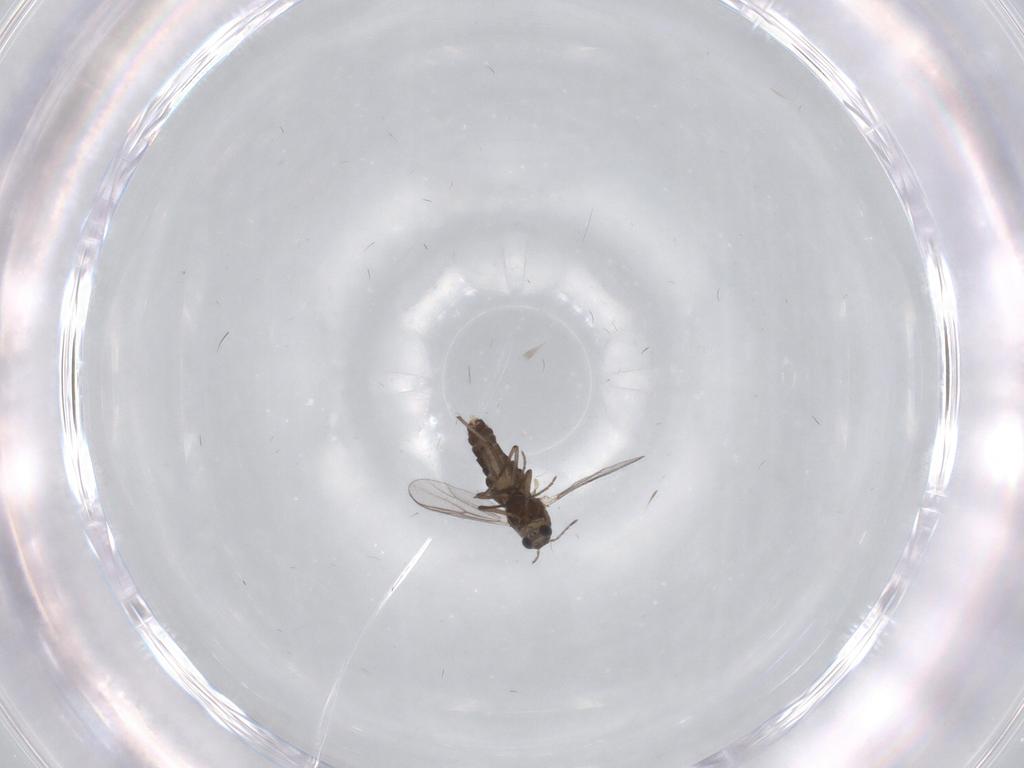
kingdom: Animalia
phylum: Arthropoda
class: Insecta
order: Diptera
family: Chironomidae
